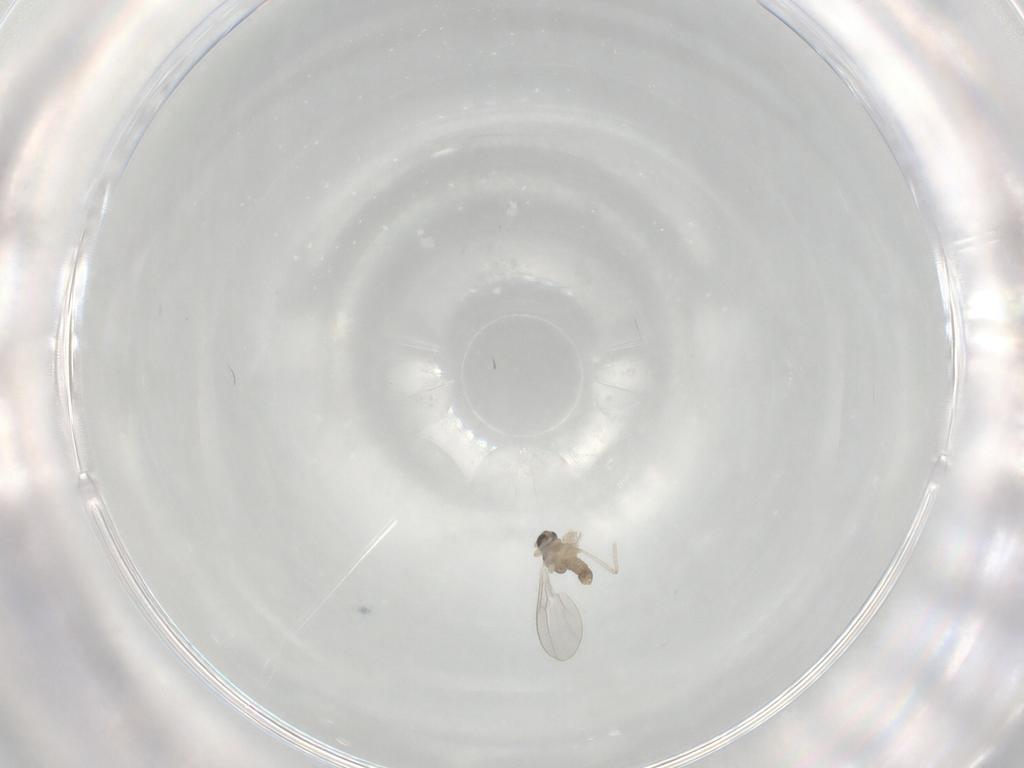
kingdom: Animalia
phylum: Arthropoda
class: Insecta
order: Diptera
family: Cecidomyiidae
